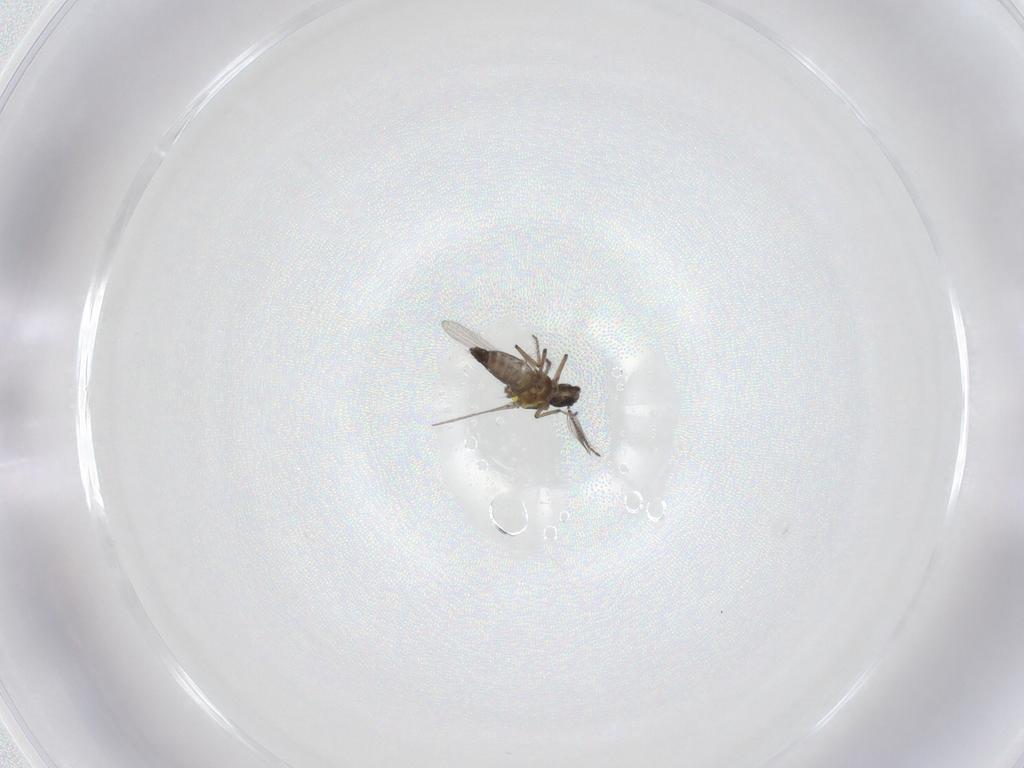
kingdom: Animalia
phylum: Arthropoda
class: Insecta
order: Diptera
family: Ceratopogonidae
